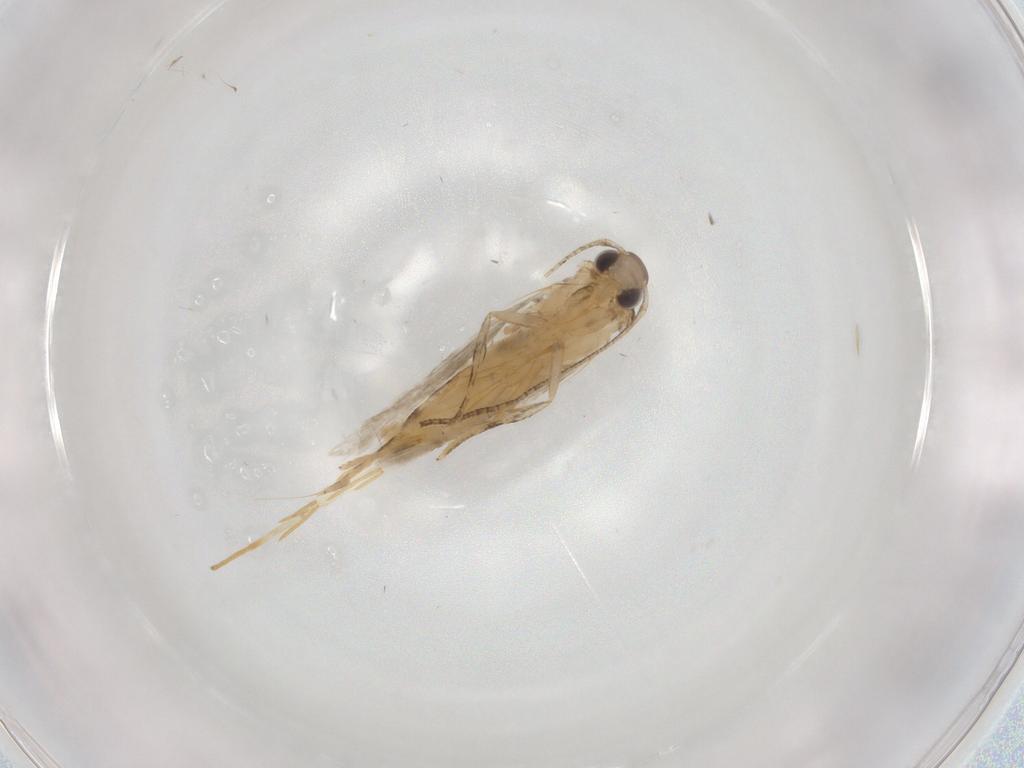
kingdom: Animalia
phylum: Arthropoda
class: Insecta
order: Lepidoptera
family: Autostichidae
